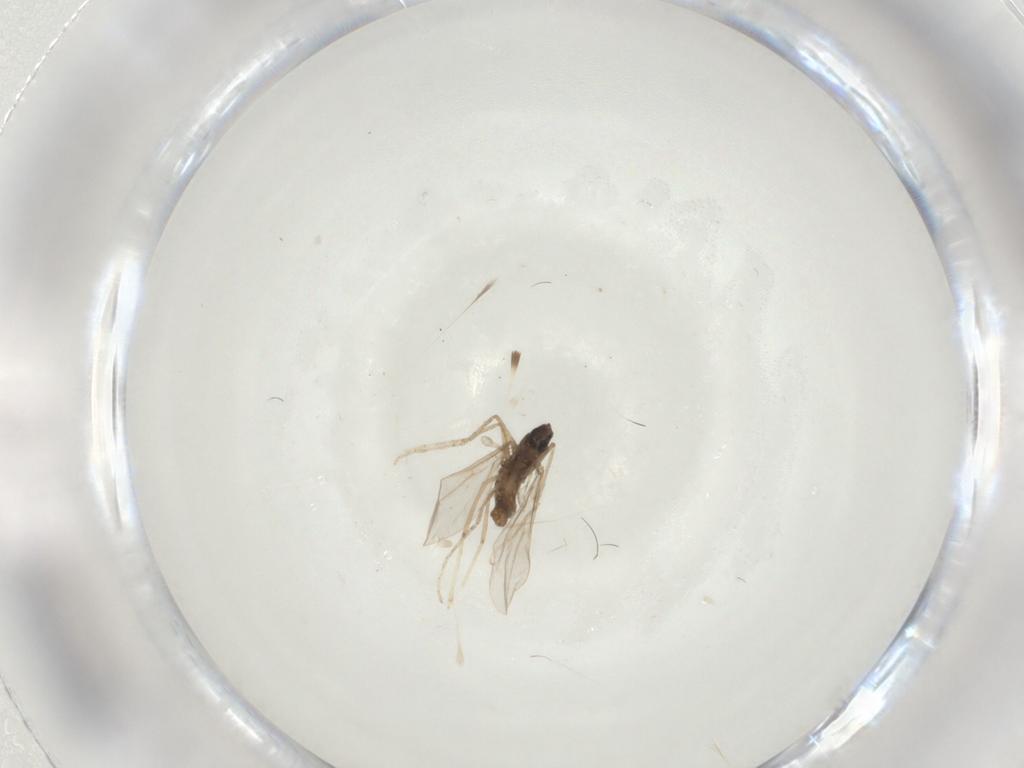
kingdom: Animalia
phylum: Arthropoda
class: Insecta
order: Diptera
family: Cecidomyiidae
